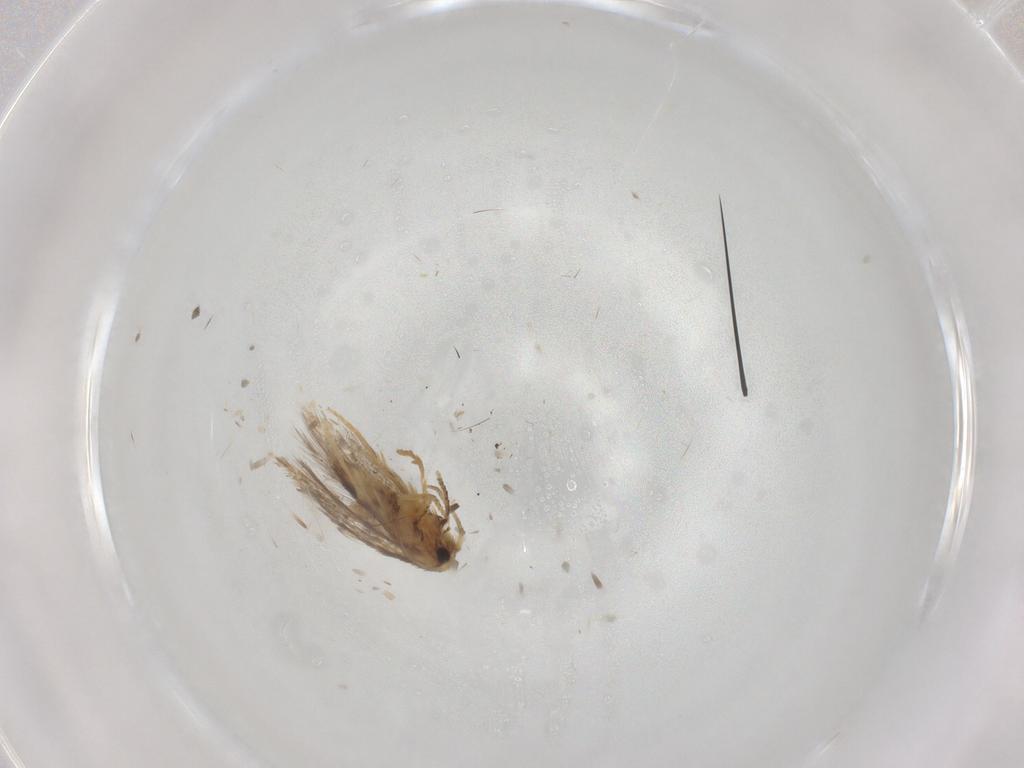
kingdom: Animalia
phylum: Arthropoda
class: Insecta
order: Lepidoptera
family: Nepticulidae
